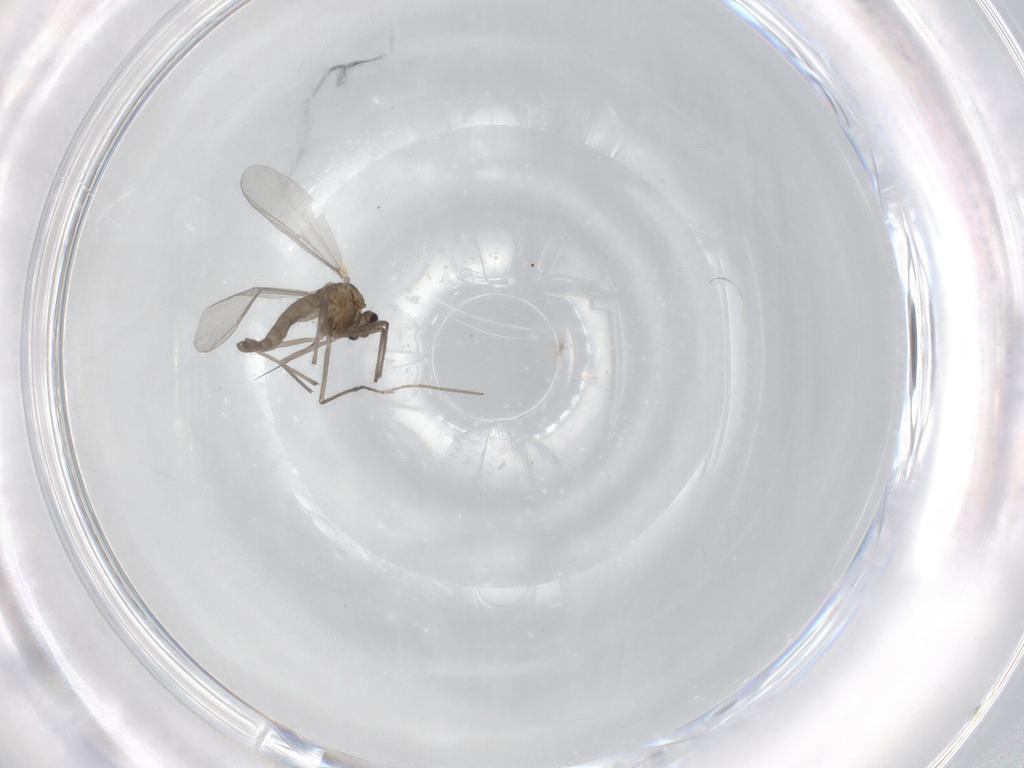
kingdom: Animalia
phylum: Arthropoda
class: Insecta
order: Diptera
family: Chironomidae
